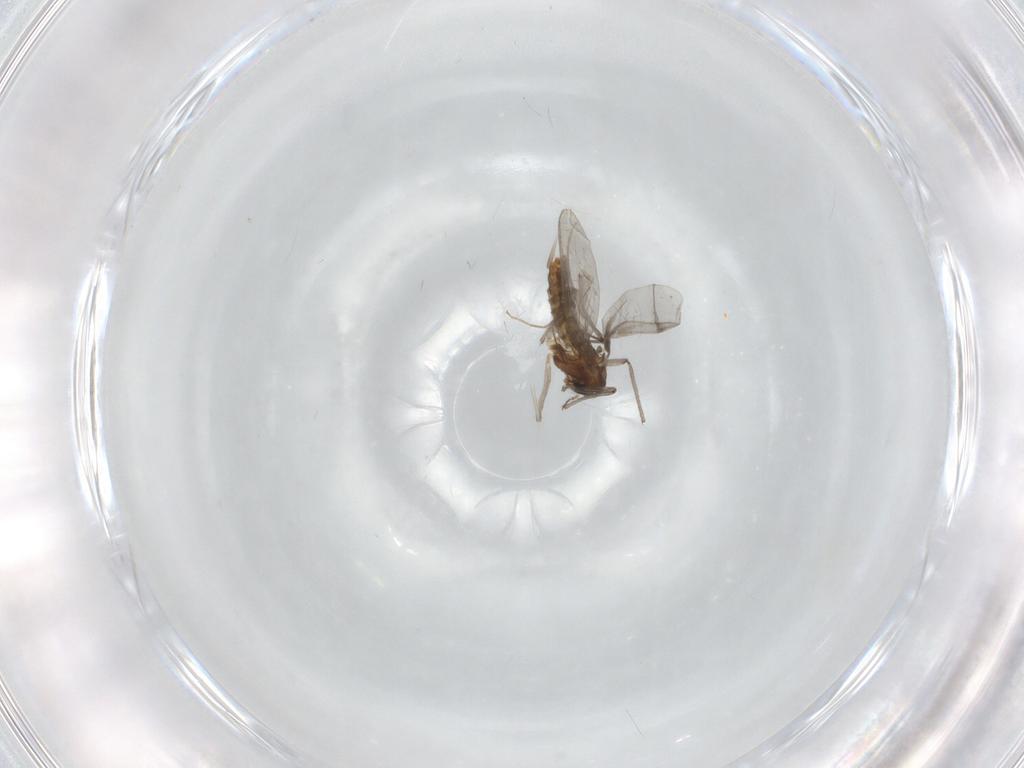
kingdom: Animalia
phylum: Arthropoda
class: Insecta
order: Diptera
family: Chironomidae
